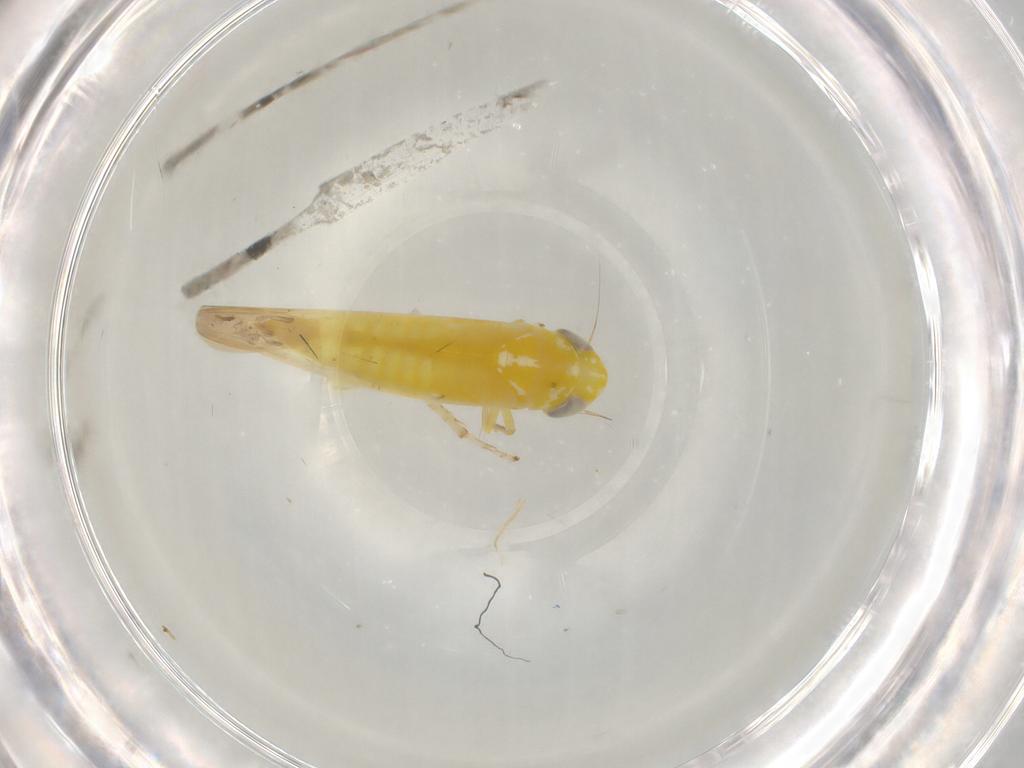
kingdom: Animalia
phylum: Arthropoda
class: Insecta
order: Hemiptera
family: Cicadellidae
